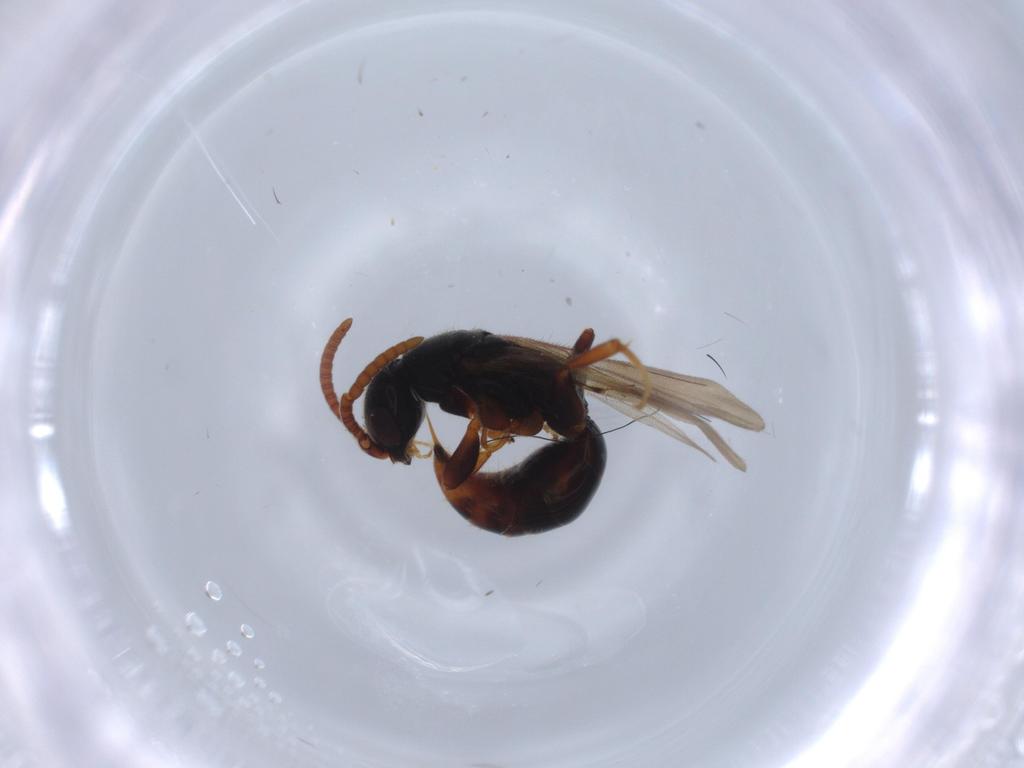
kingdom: Animalia
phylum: Arthropoda
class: Insecta
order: Hymenoptera
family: Bethylidae
